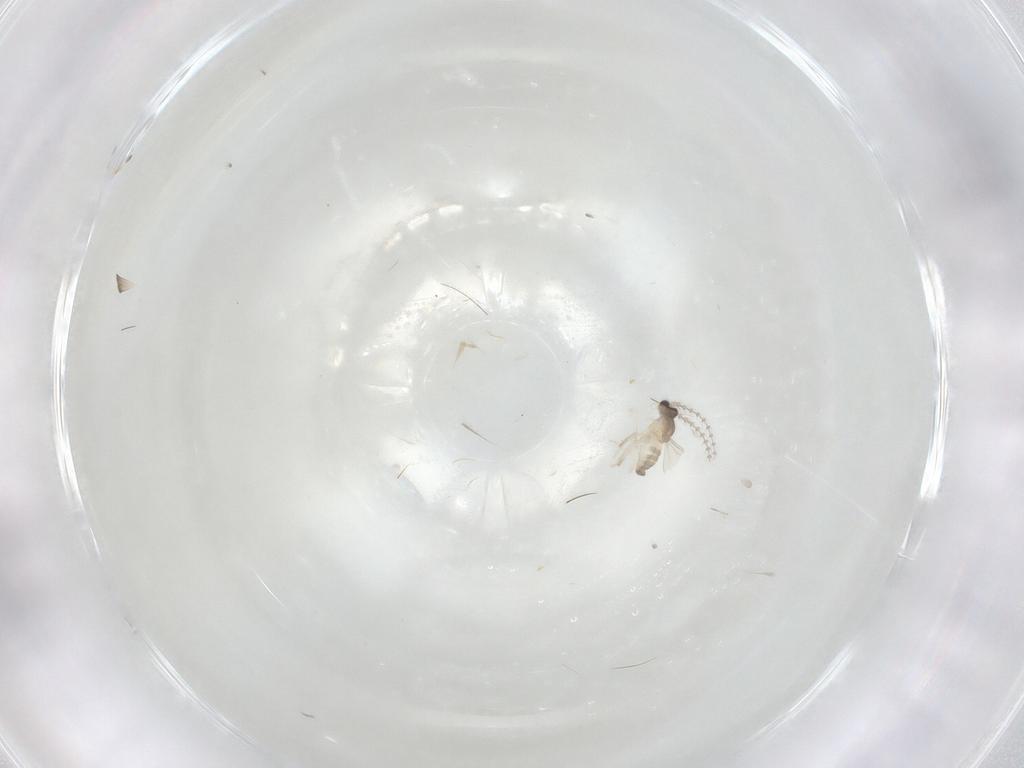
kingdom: Animalia
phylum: Arthropoda
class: Insecta
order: Diptera
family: Cecidomyiidae
